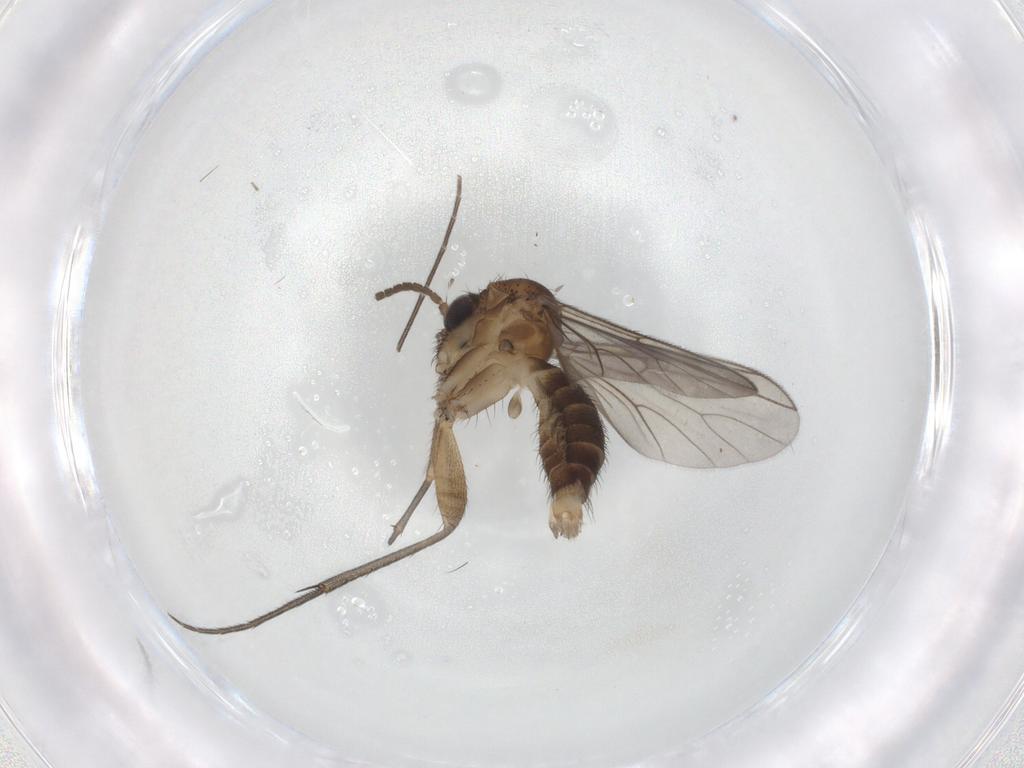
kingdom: Animalia
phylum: Arthropoda
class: Insecta
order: Diptera
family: Mycetophilidae
